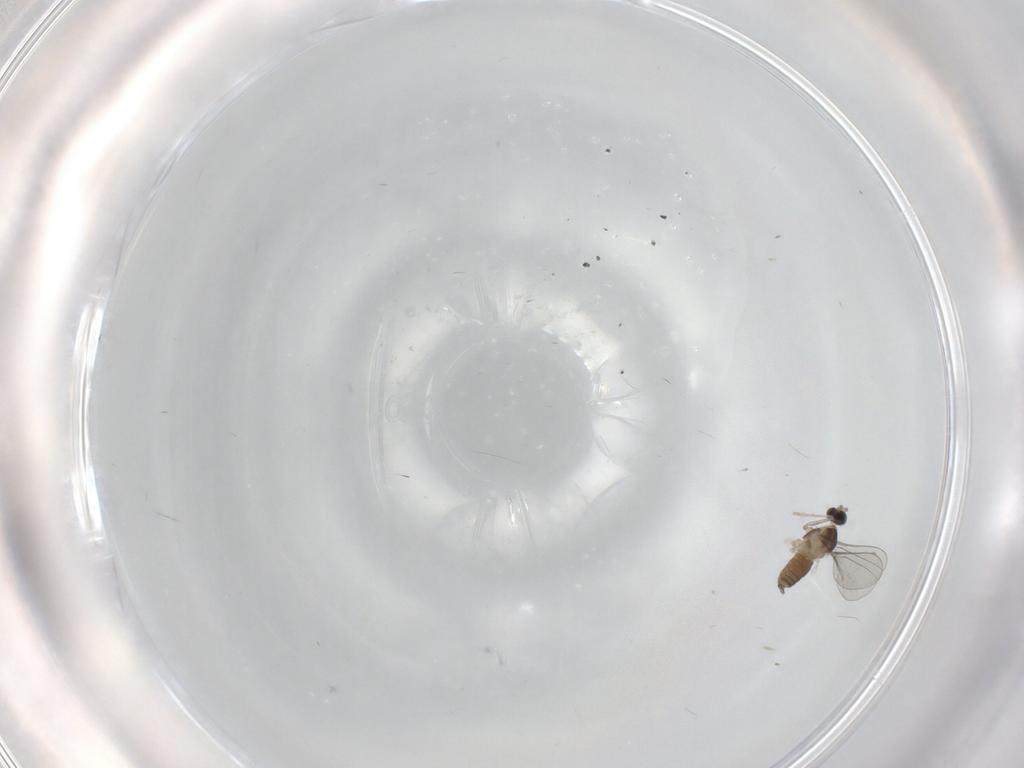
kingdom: Animalia
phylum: Arthropoda
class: Insecta
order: Diptera
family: Cecidomyiidae
